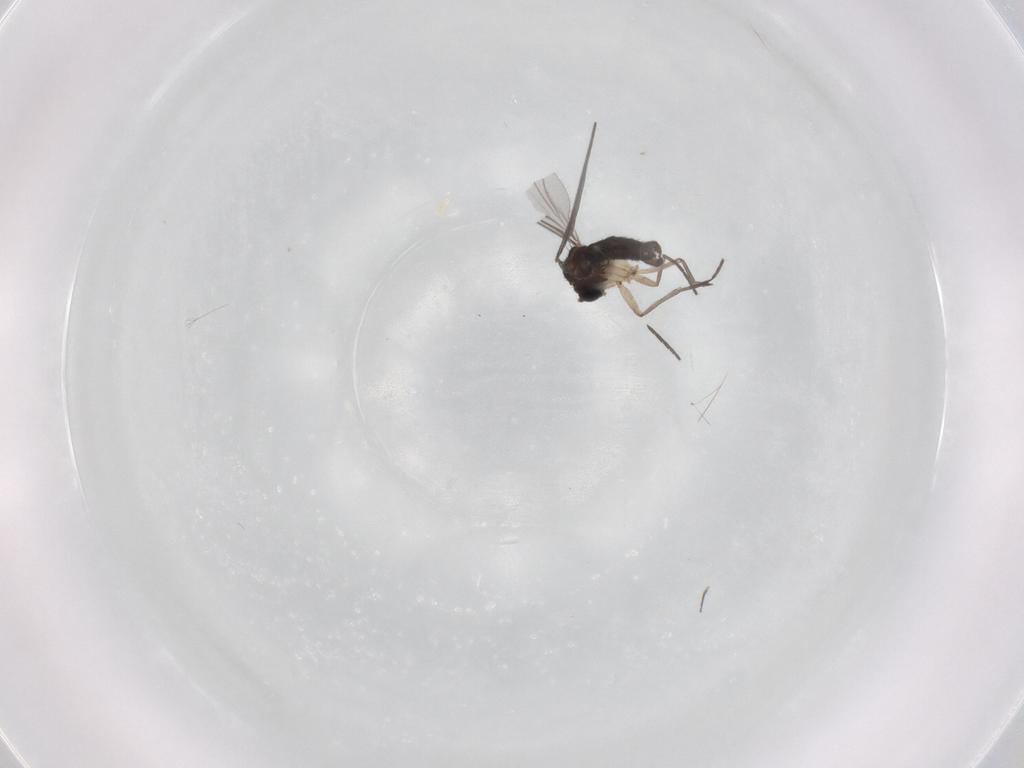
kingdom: Animalia
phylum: Arthropoda
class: Insecta
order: Diptera
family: Sciaridae
